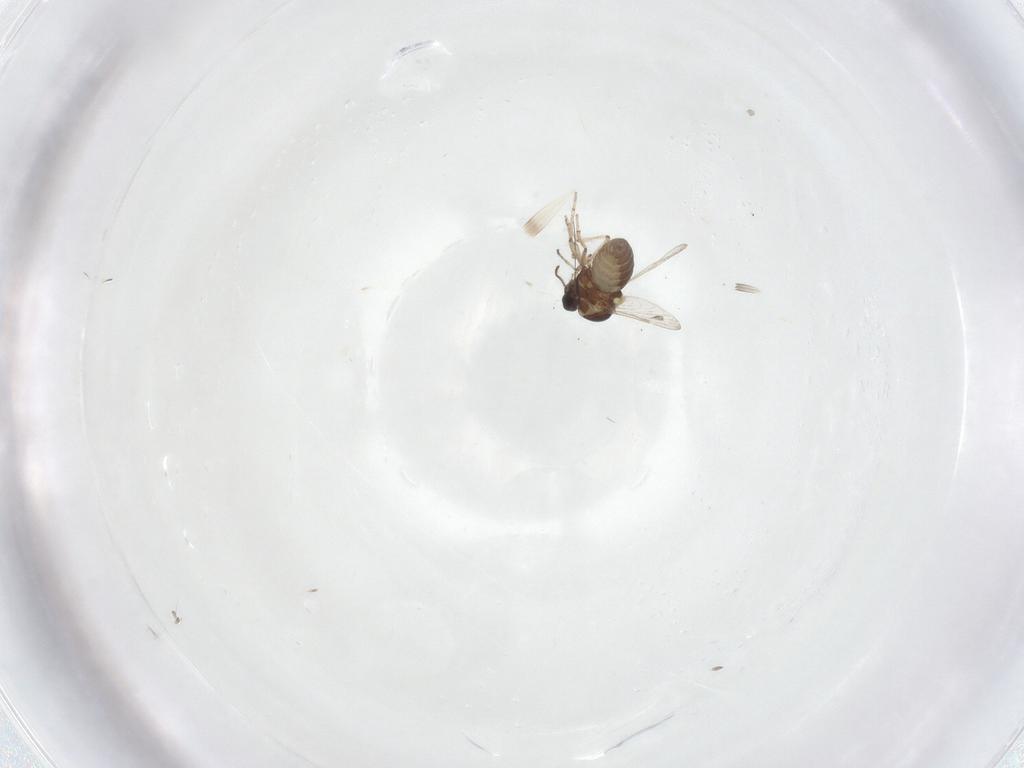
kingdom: Animalia
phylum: Arthropoda
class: Insecta
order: Diptera
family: Ceratopogonidae
